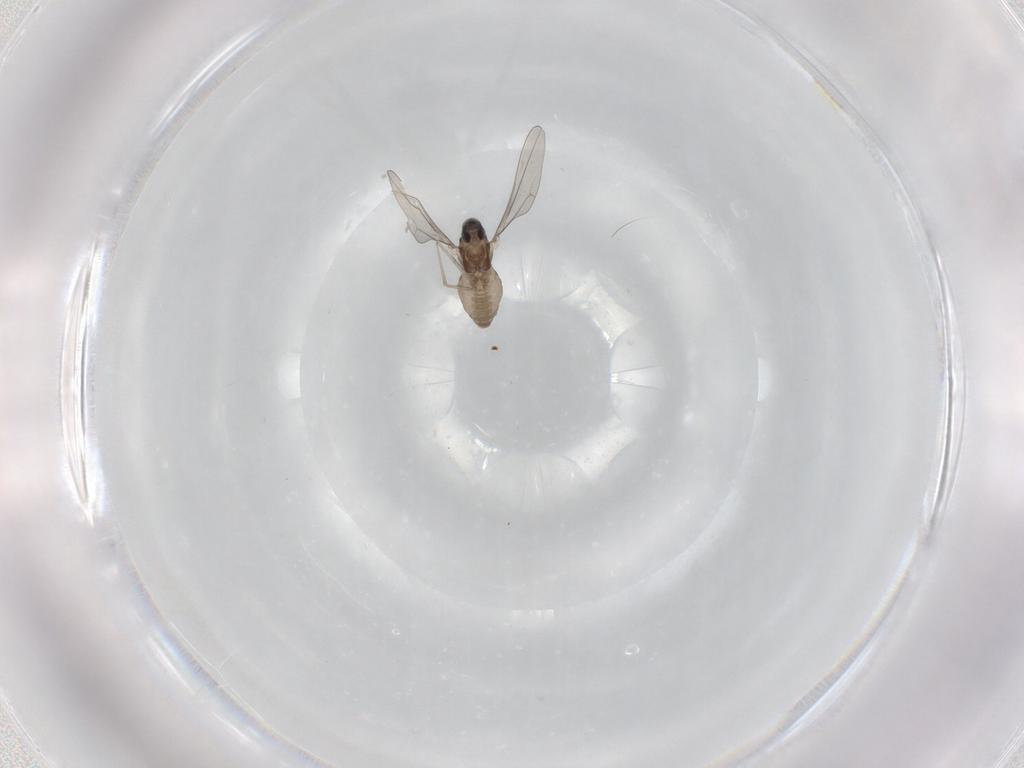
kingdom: Animalia
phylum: Arthropoda
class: Insecta
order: Diptera
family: Cecidomyiidae
